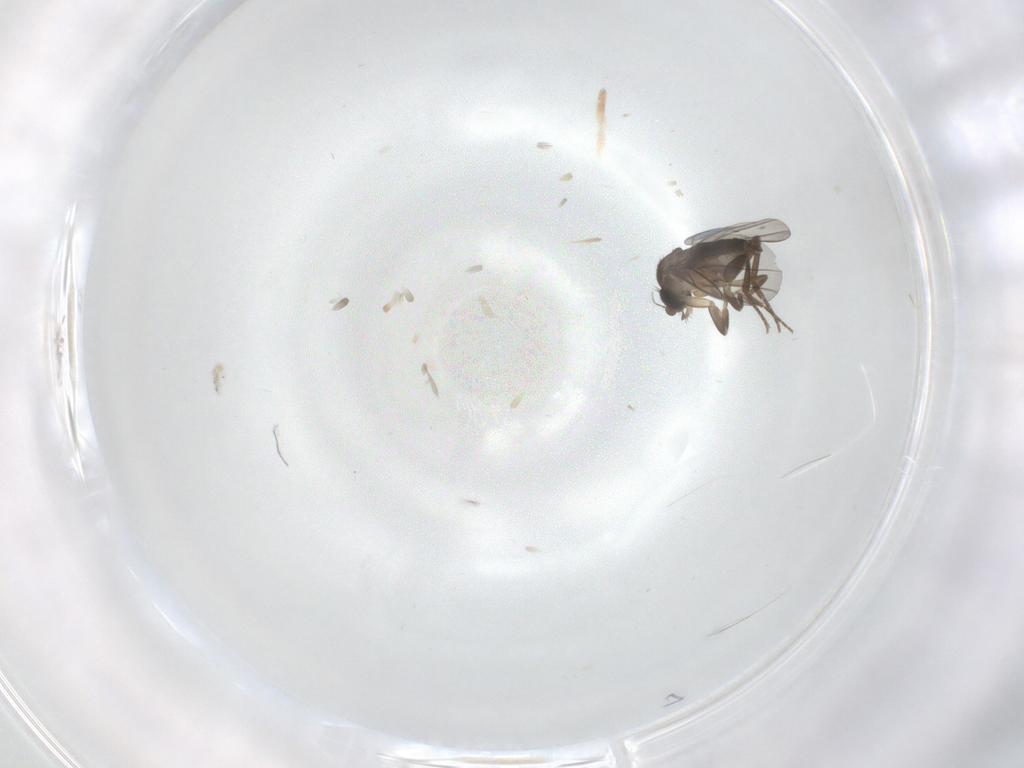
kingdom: Animalia
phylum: Arthropoda
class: Insecta
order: Diptera
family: Phoridae
